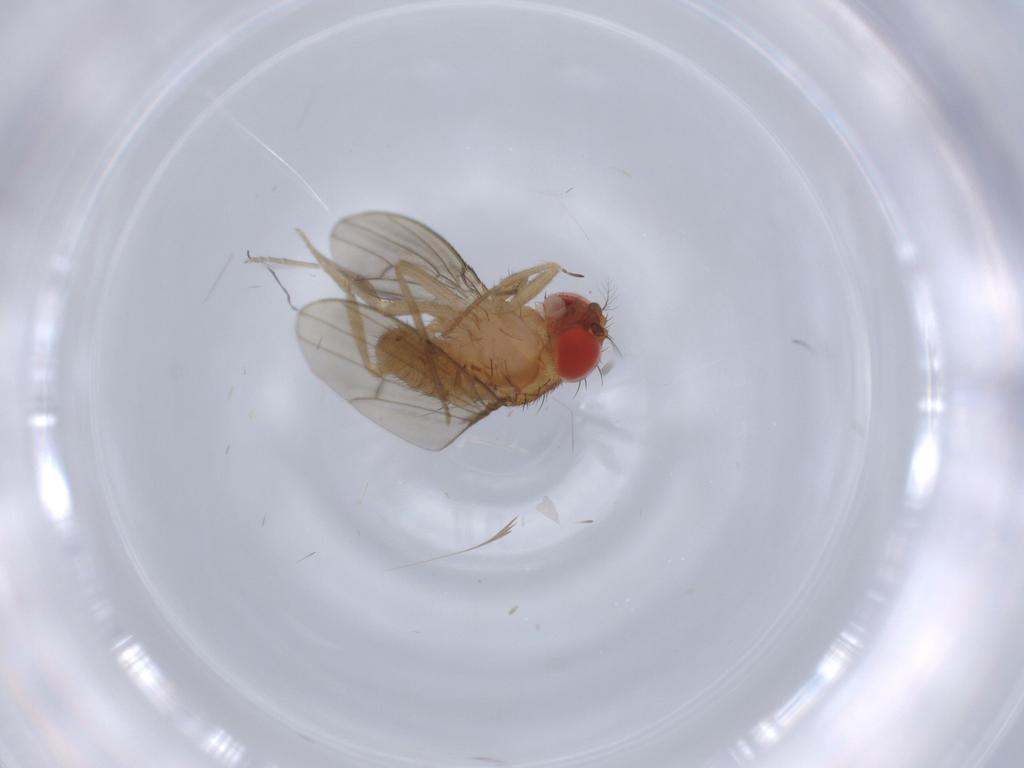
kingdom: Animalia
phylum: Arthropoda
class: Insecta
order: Diptera
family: Drosophilidae
